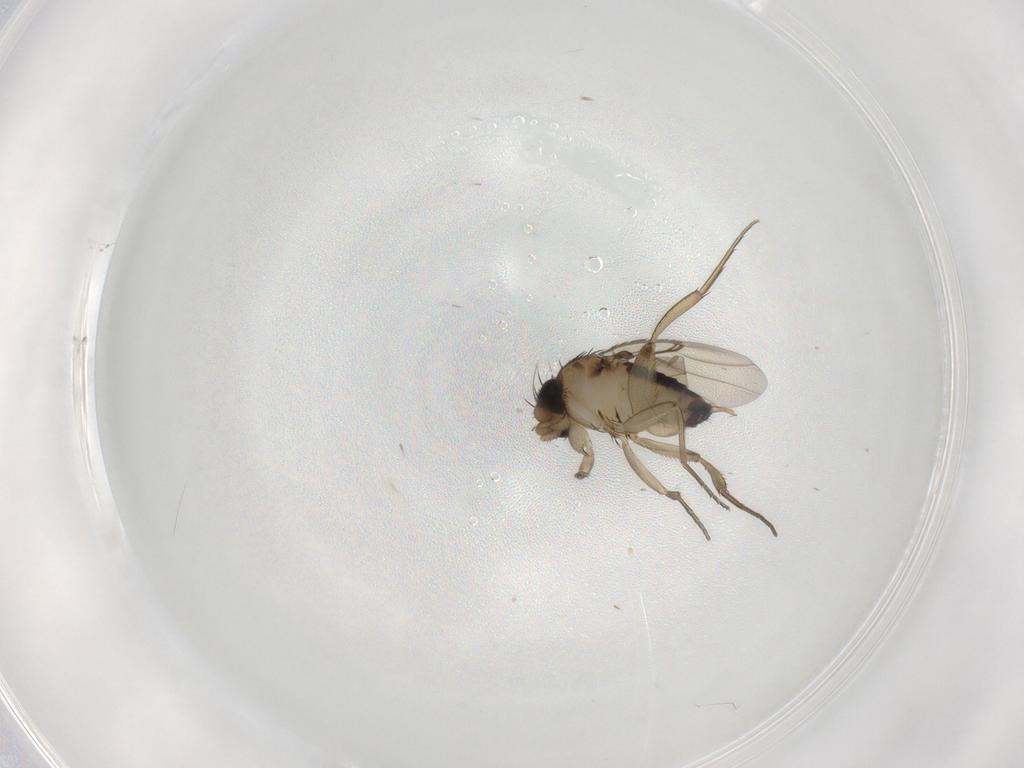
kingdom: Animalia
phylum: Arthropoda
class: Insecta
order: Diptera
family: Phoridae
